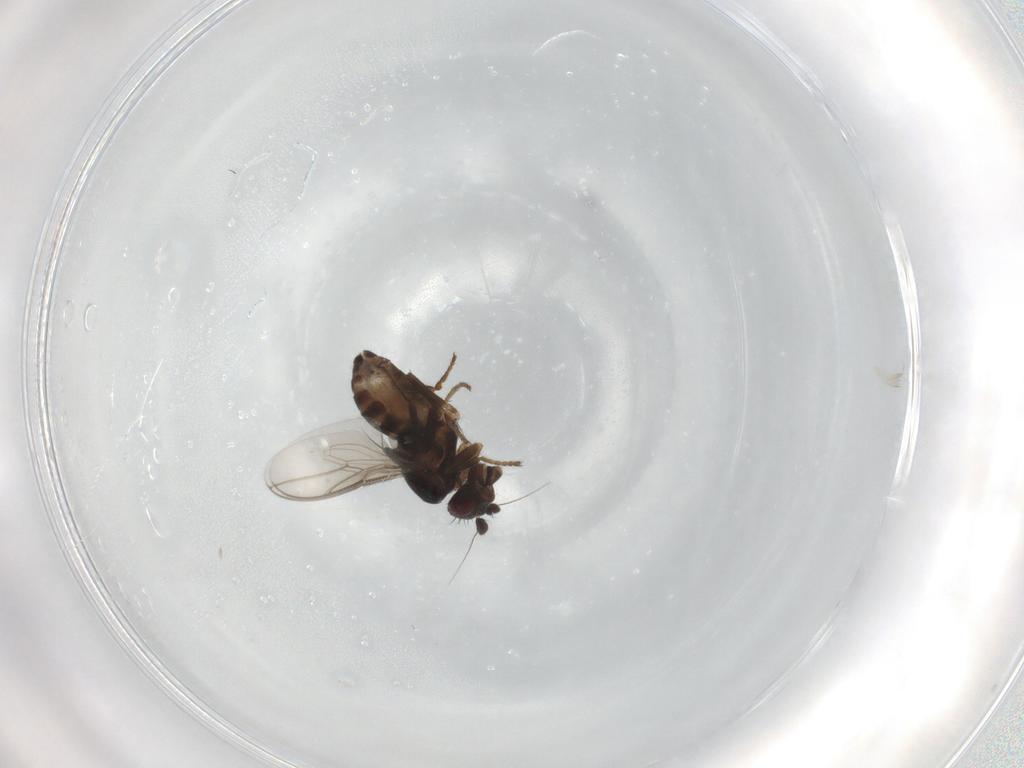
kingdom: Animalia
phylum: Arthropoda
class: Insecta
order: Diptera
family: Sphaeroceridae
